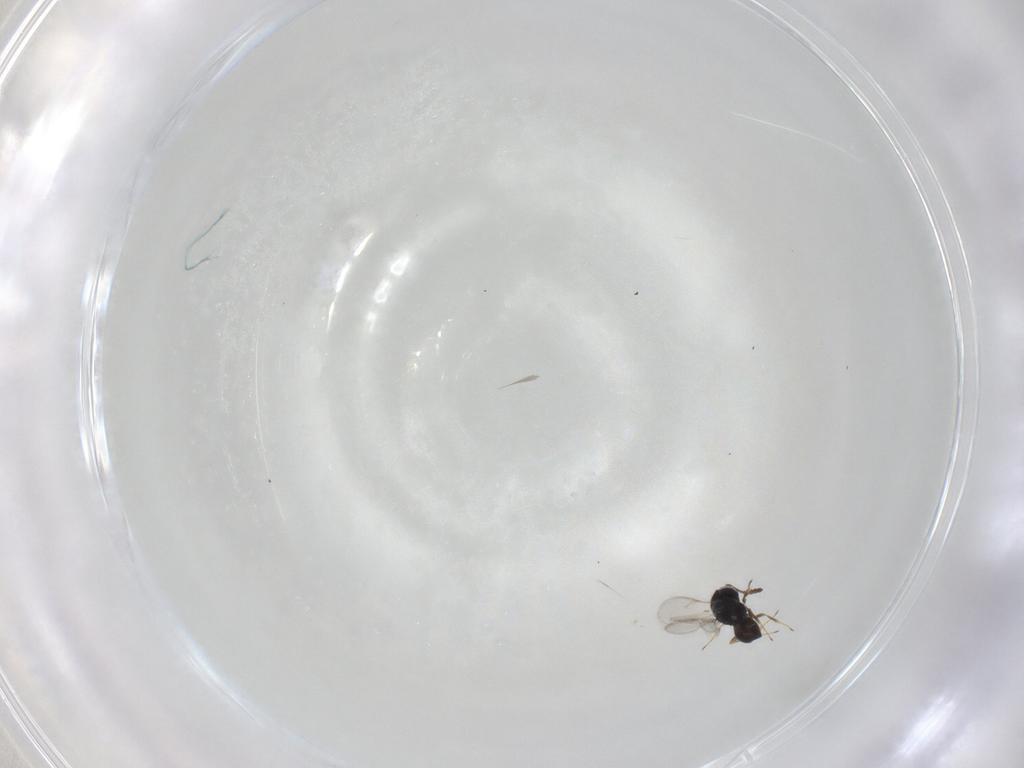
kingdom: Animalia
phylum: Arthropoda
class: Insecta
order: Hymenoptera
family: Scelionidae
